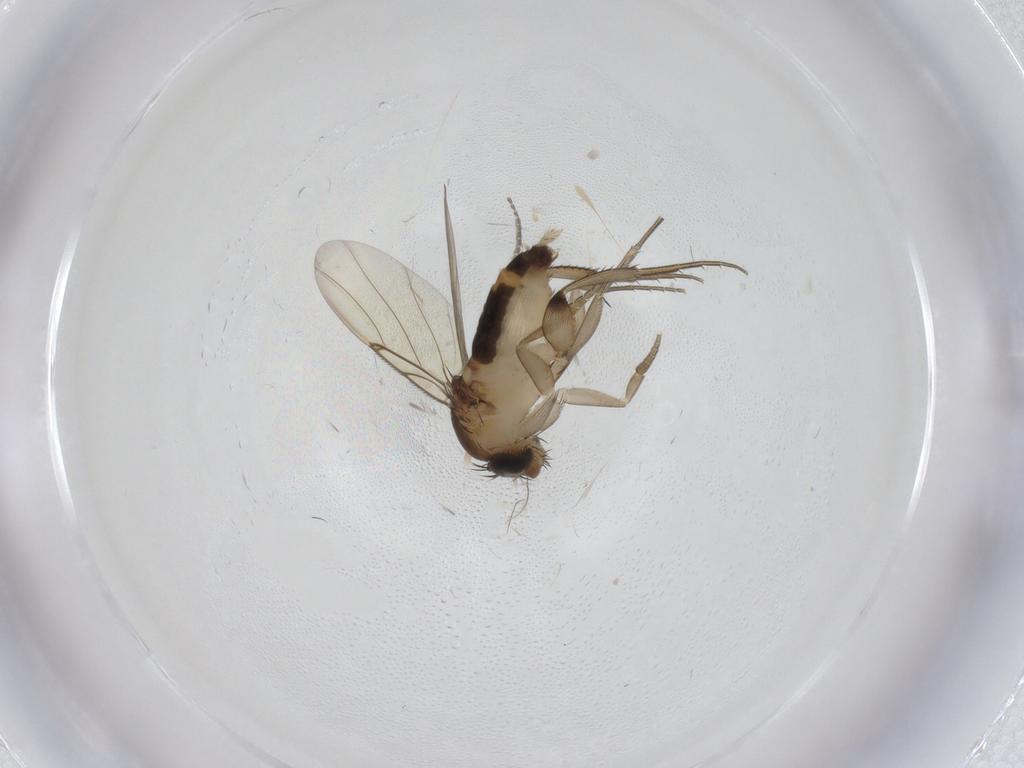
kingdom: Animalia
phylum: Arthropoda
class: Insecta
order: Diptera
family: Phoridae
